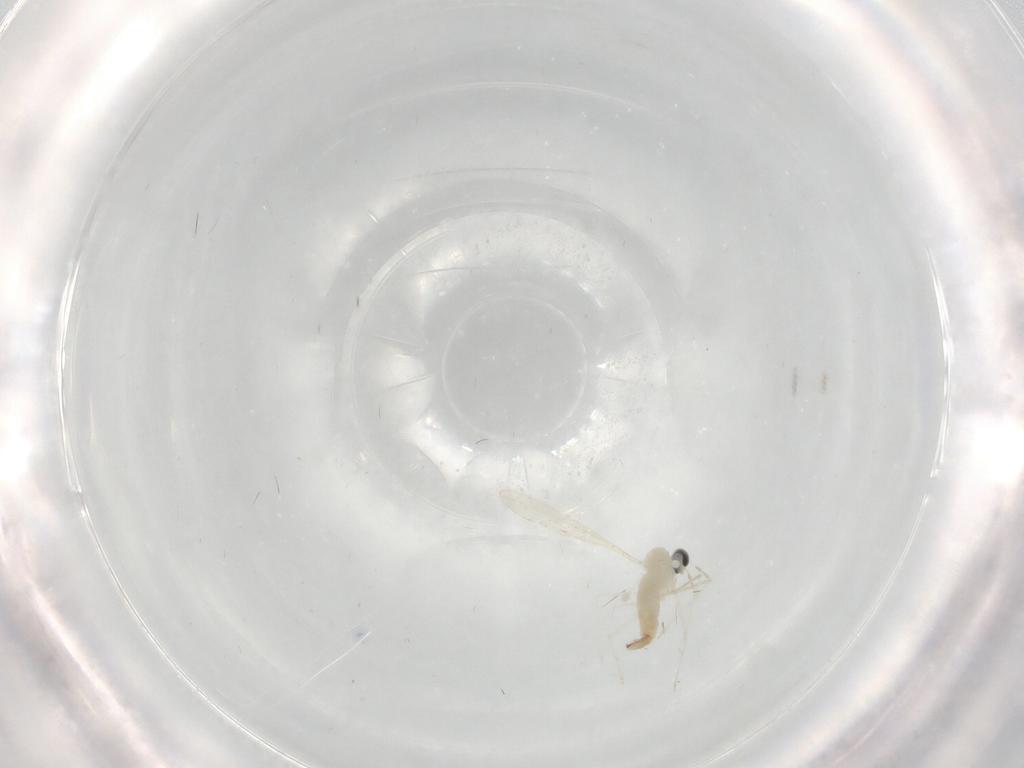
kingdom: Animalia
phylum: Arthropoda
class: Insecta
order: Diptera
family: Cecidomyiidae
